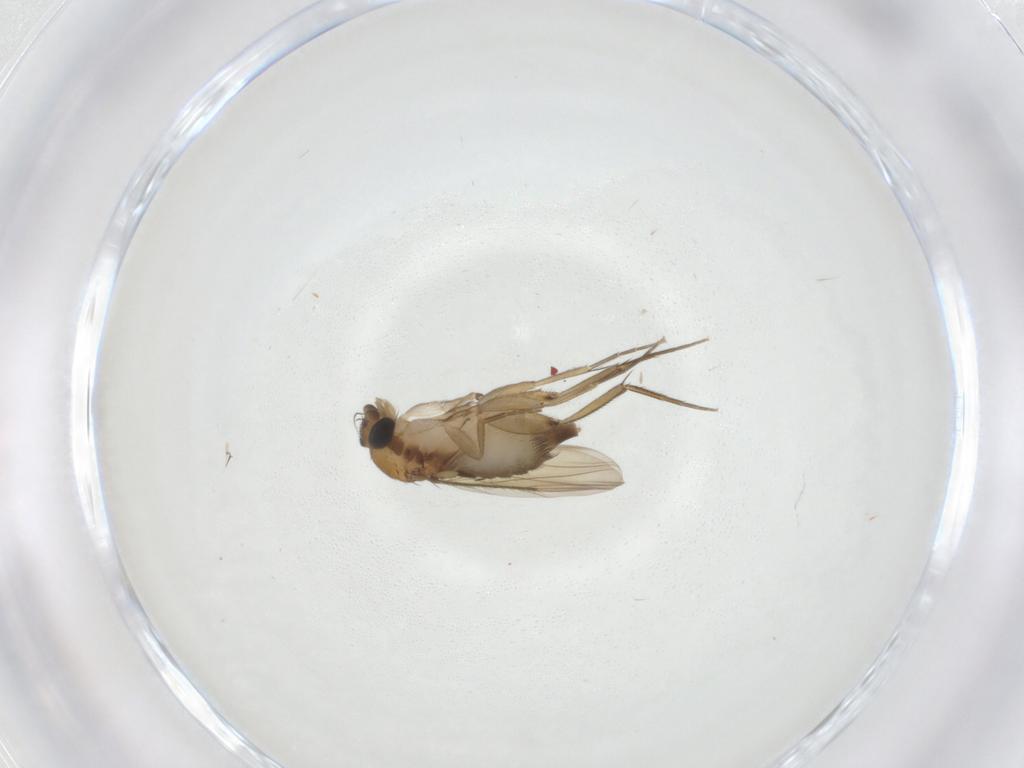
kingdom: Animalia
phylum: Arthropoda
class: Insecta
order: Diptera
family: Phoridae
